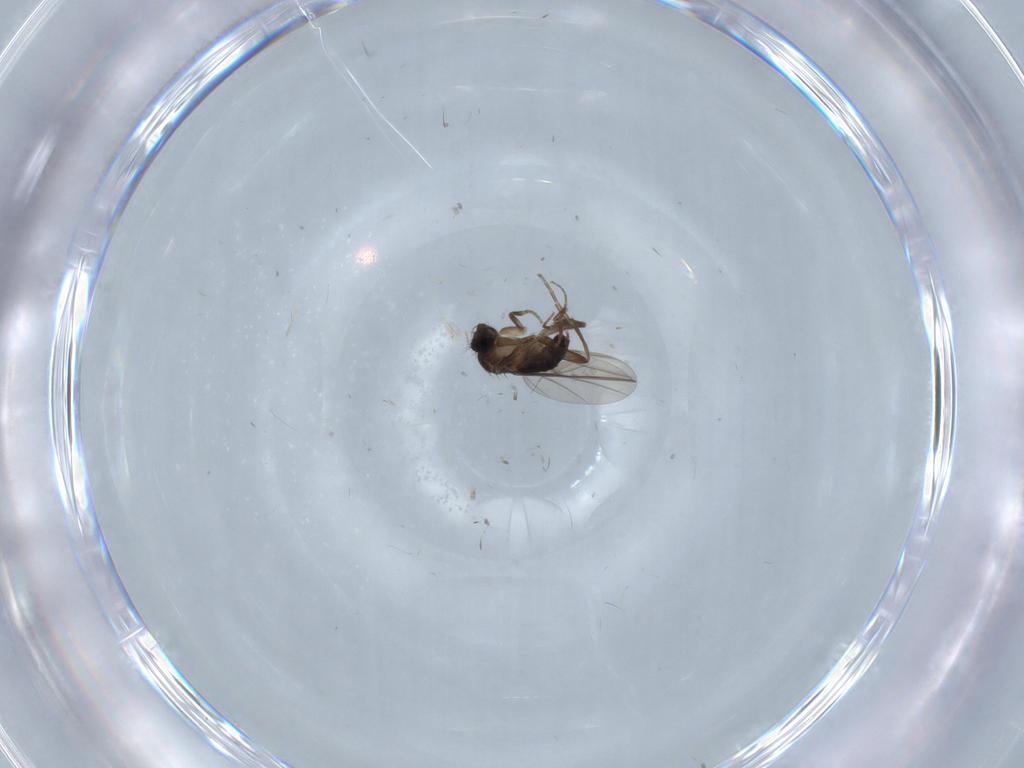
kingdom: Animalia
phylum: Arthropoda
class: Insecta
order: Diptera
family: Phoridae
